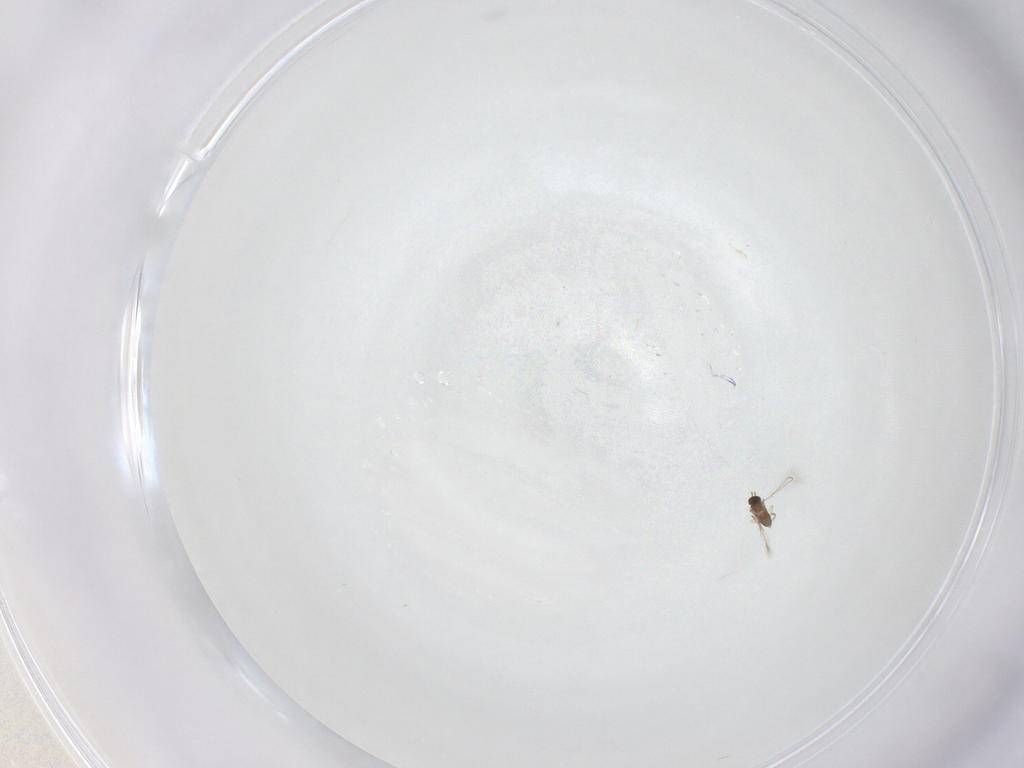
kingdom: Animalia
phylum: Arthropoda
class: Insecta
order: Hymenoptera
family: Mymaridae
